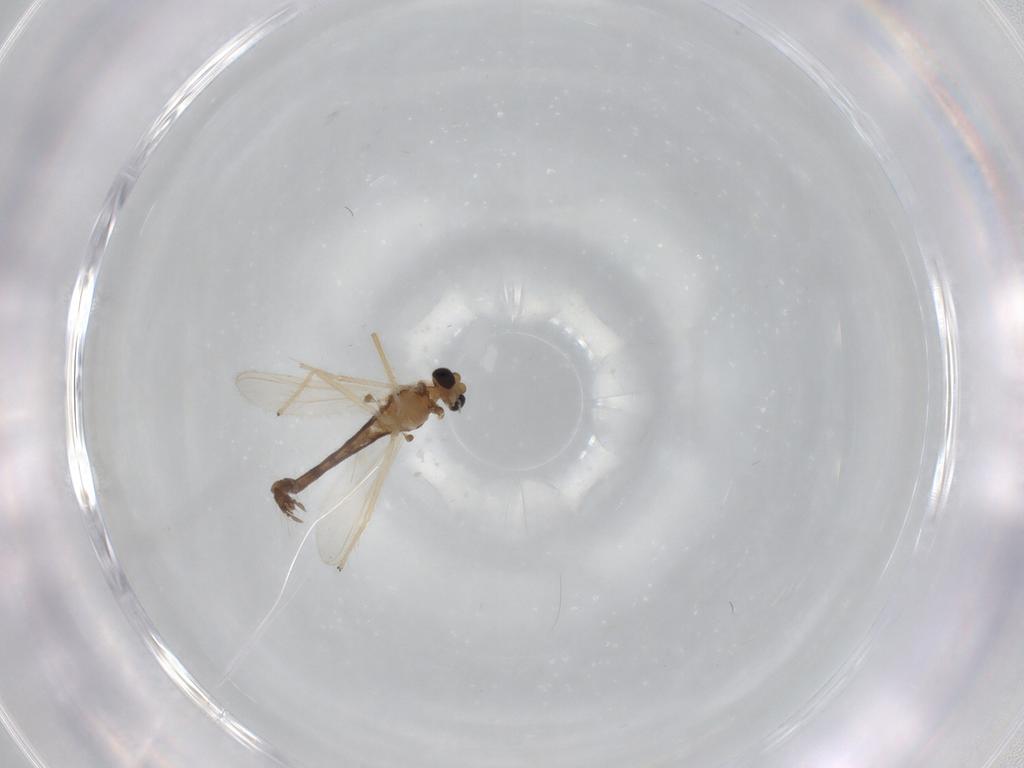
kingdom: Animalia
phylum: Arthropoda
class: Insecta
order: Diptera
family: Chironomidae
